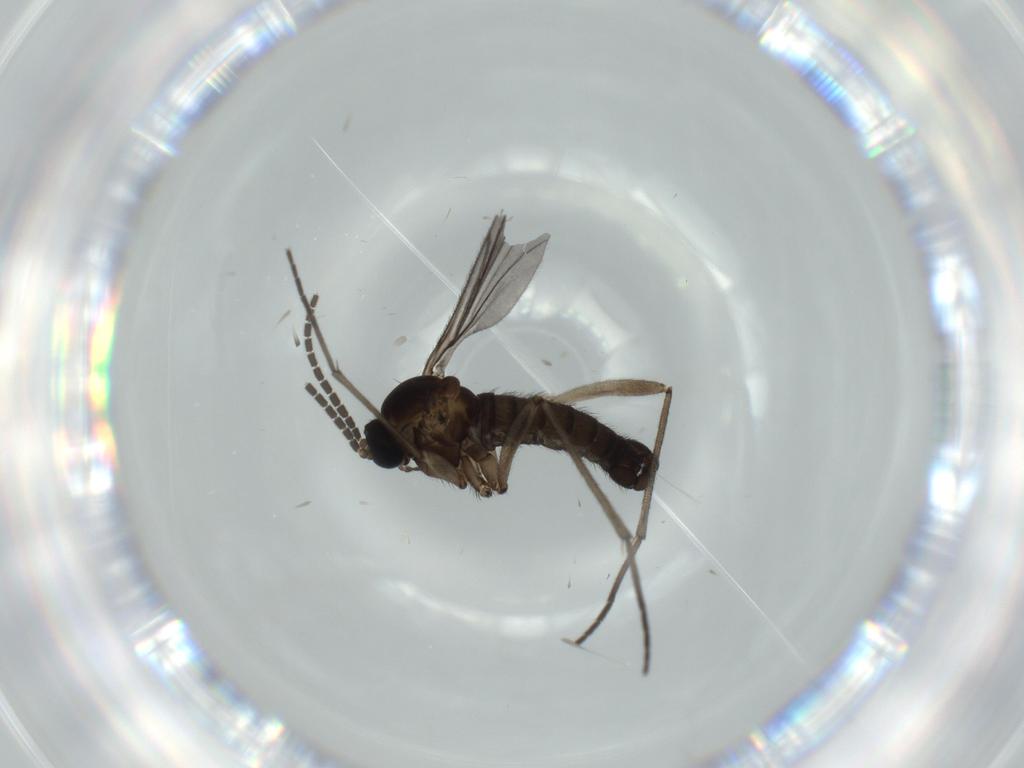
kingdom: Animalia
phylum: Arthropoda
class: Insecta
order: Diptera
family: Sciaridae
